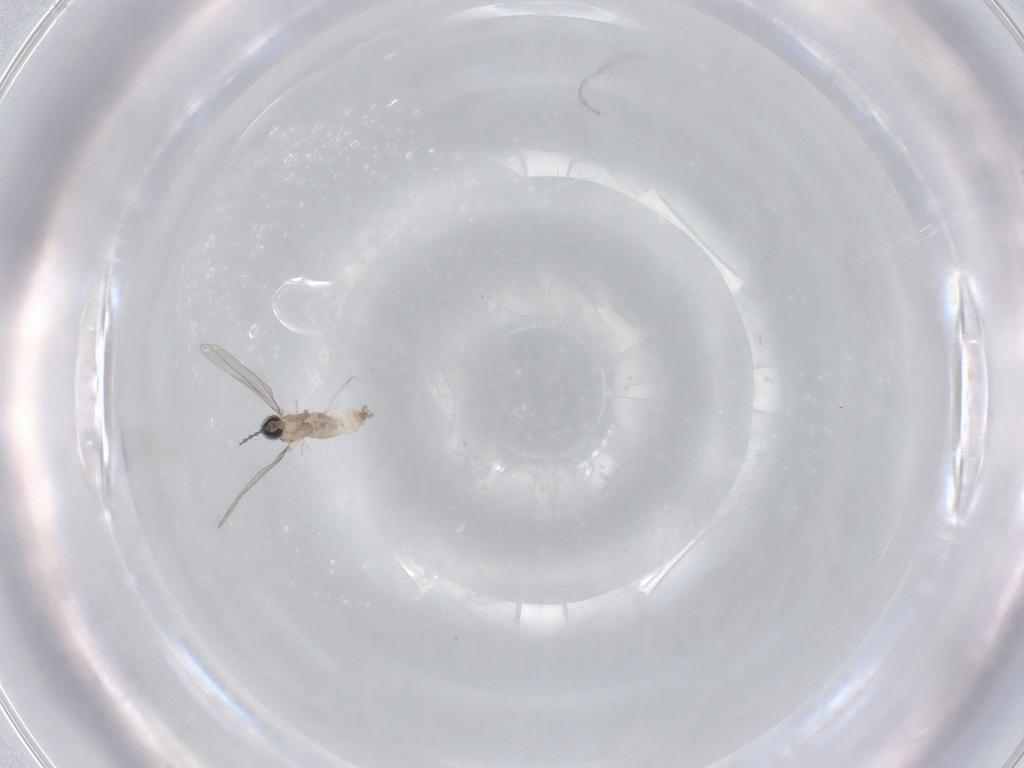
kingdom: Animalia
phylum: Arthropoda
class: Insecta
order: Diptera
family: Cecidomyiidae
